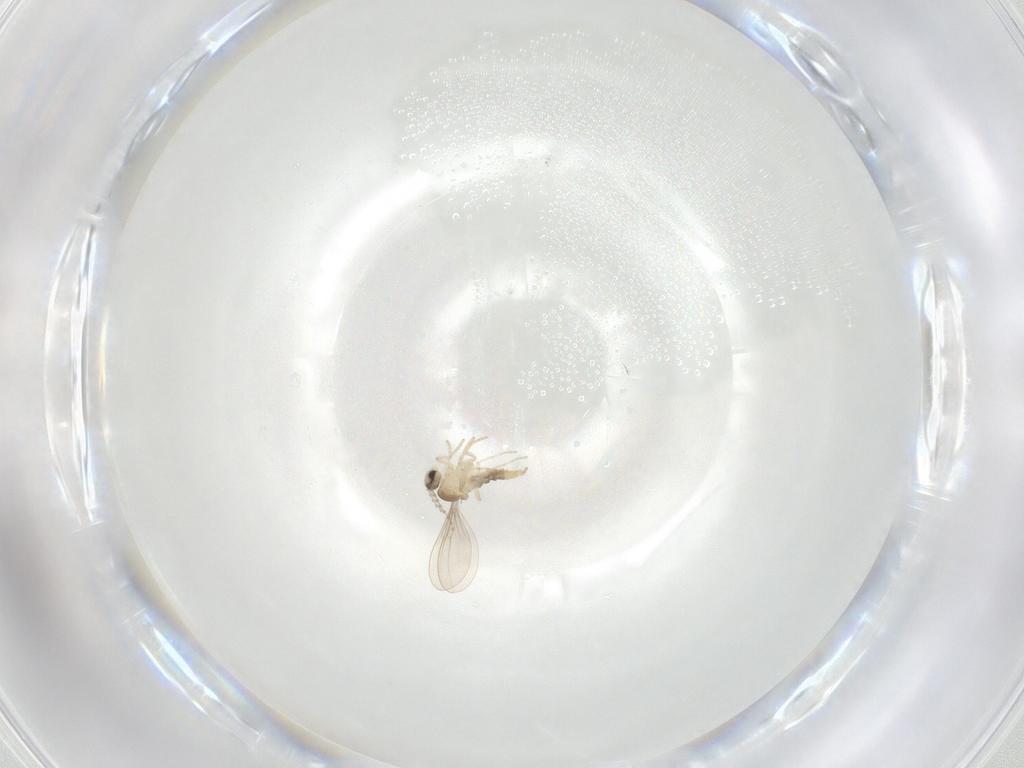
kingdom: Animalia
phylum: Arthropoda
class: Insecta
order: Diptera
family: Cecidomyiidae
